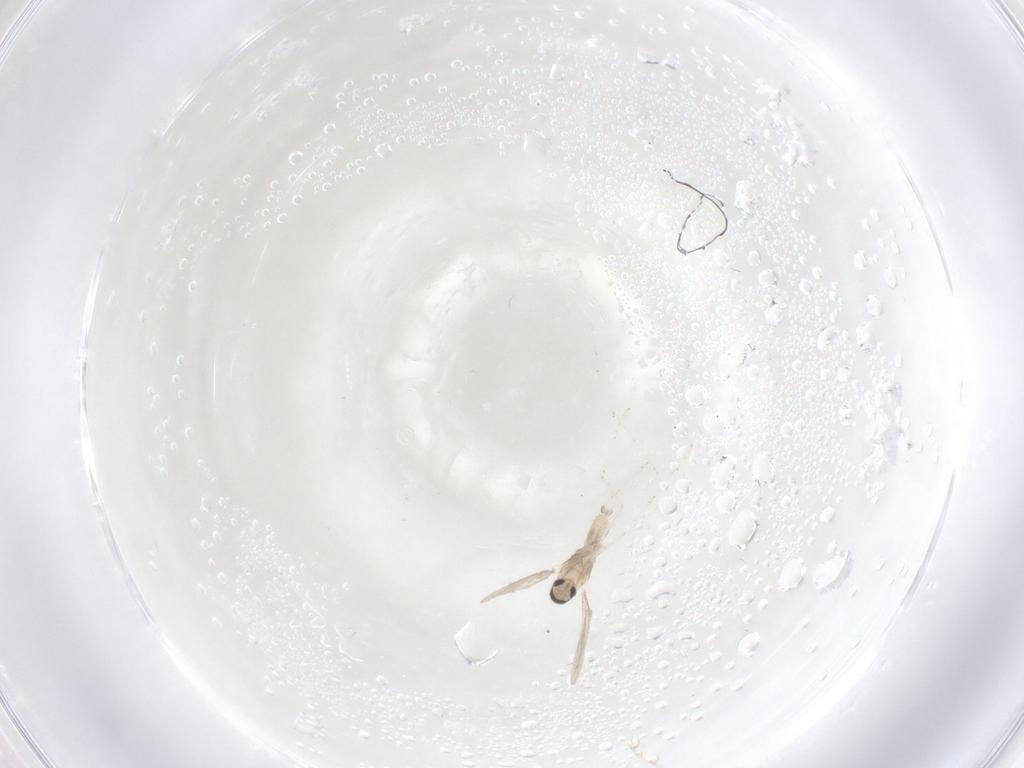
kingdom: Animalia
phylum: Arthropoda
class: Insecta
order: Diptera
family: Cecidomyiidae
